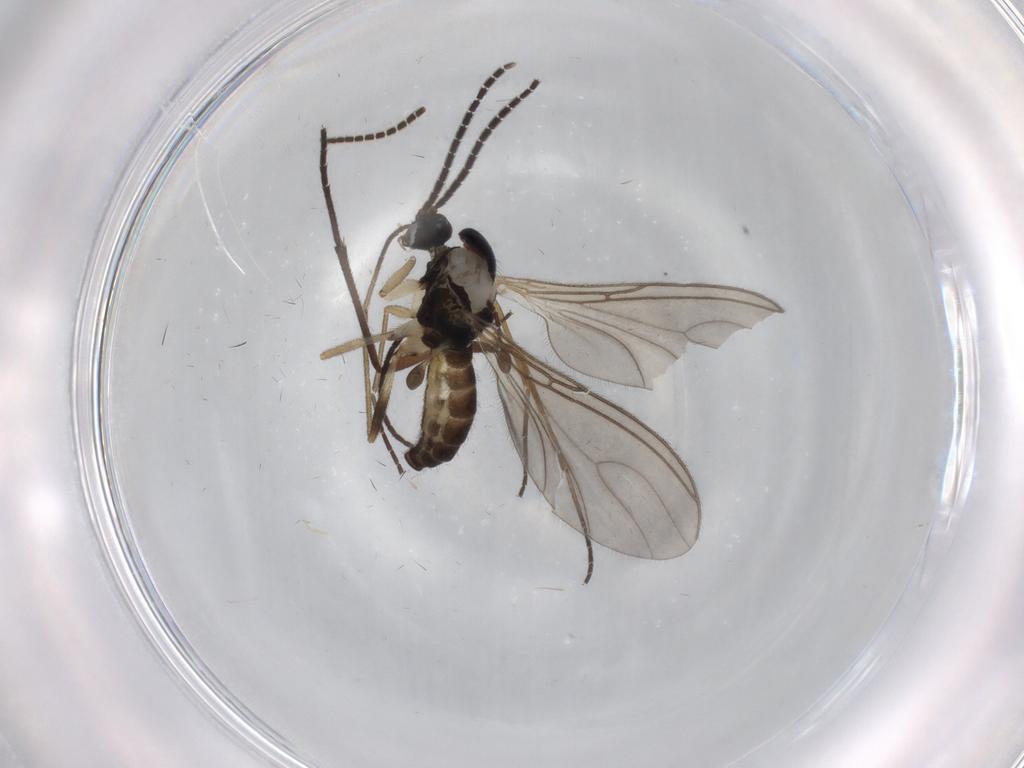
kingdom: Animalia
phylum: Arthropoda
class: Insecta
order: Diptera
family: Sciaridae
